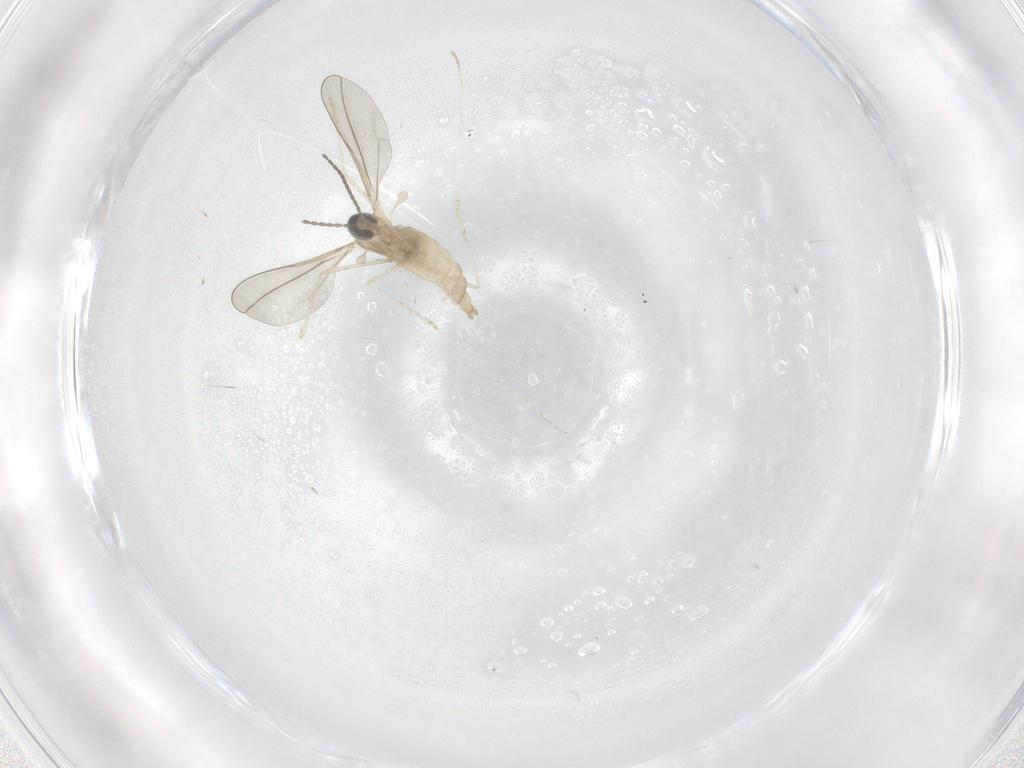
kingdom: Animalia
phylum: Arthropoda
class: Insecta
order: Diptera
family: Cecidomyiidae
